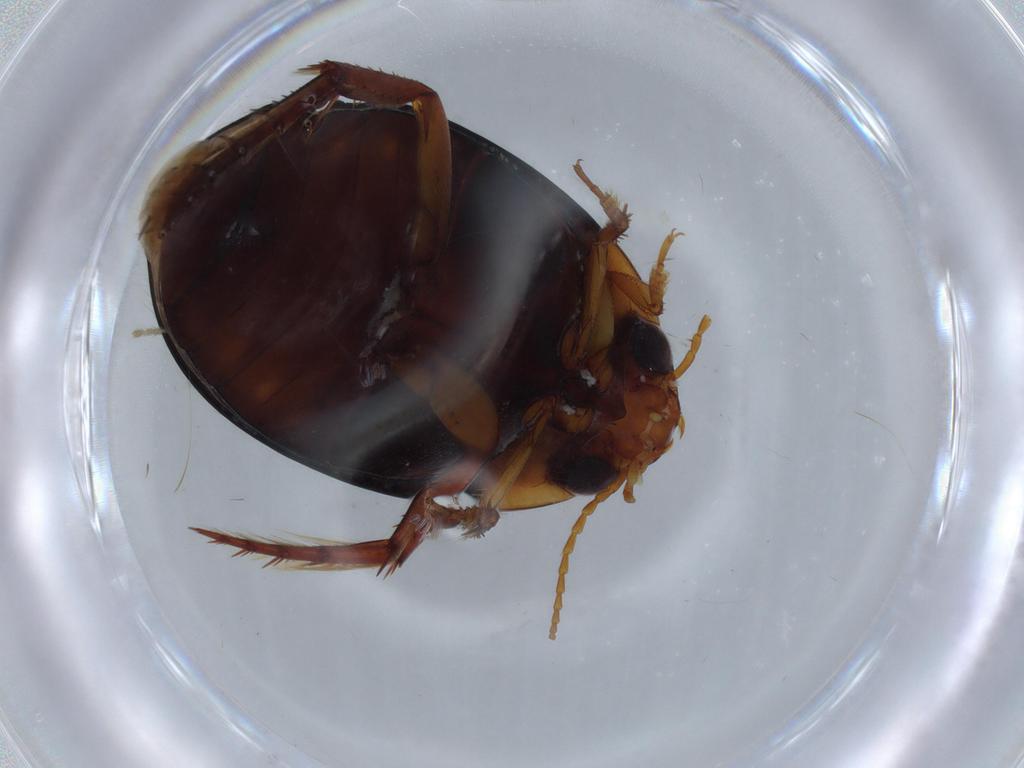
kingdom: Animalia
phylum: Arthropoda
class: Insecta
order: Coleoptera
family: Dytiscidae
